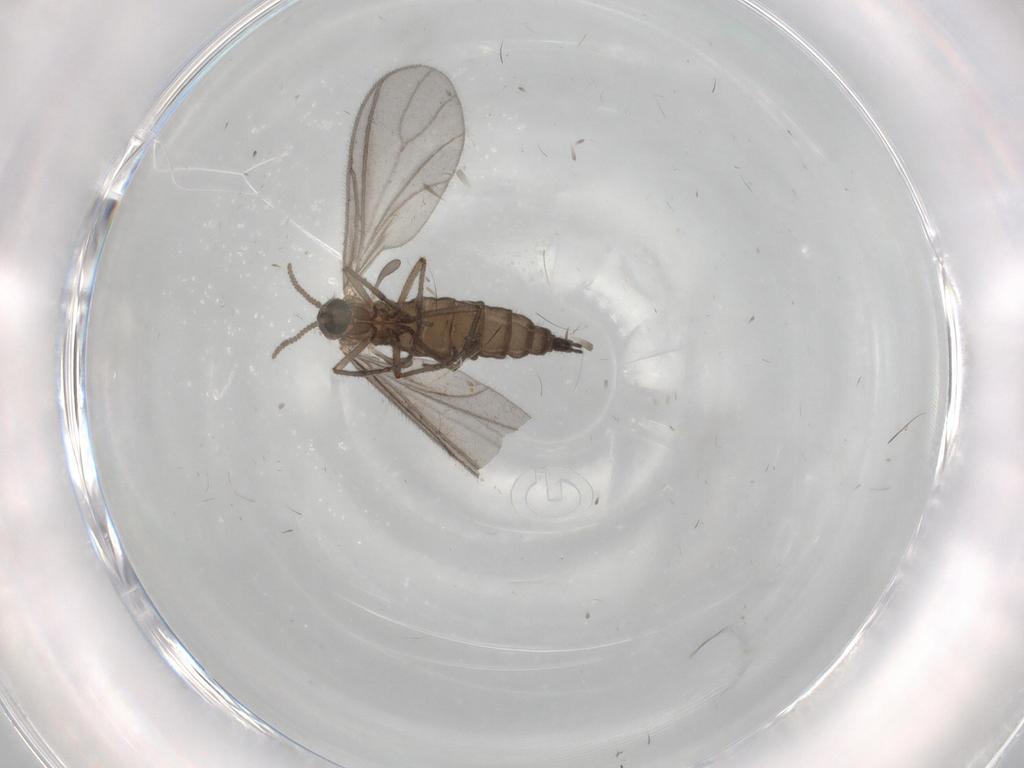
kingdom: Animalia
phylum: Arthropoda
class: Insecta
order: Diptera
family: Sciaridae
